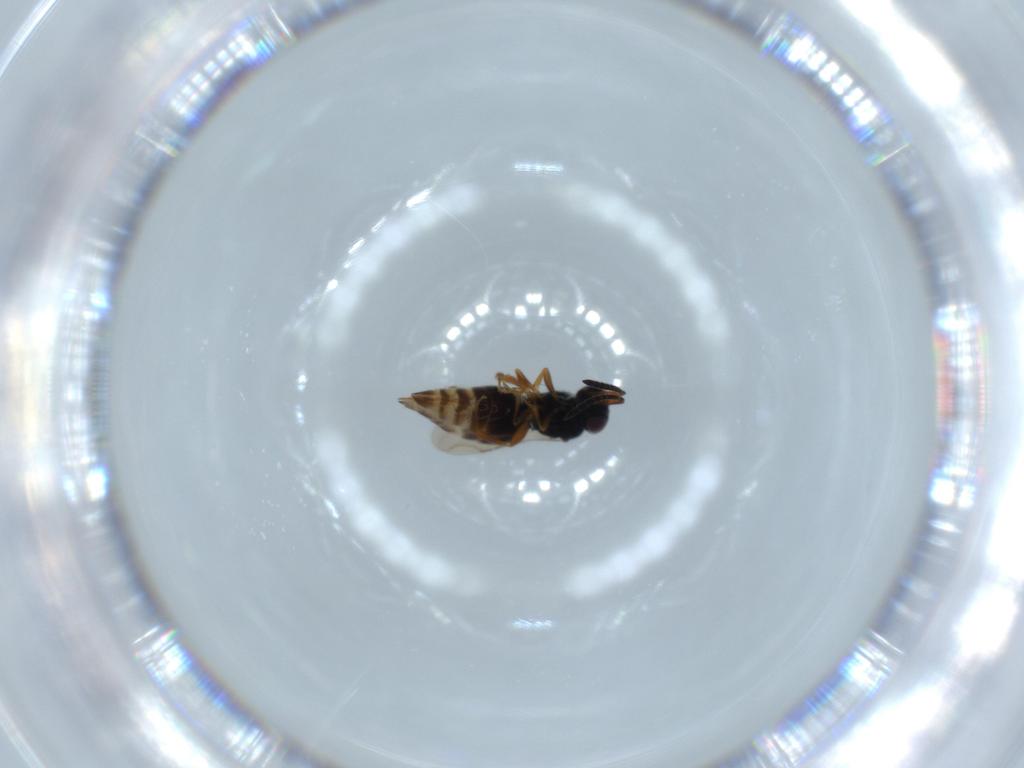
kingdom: Animalia
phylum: Arthropoda
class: Insecta
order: Hymenoptera
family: Ceraphronidae
